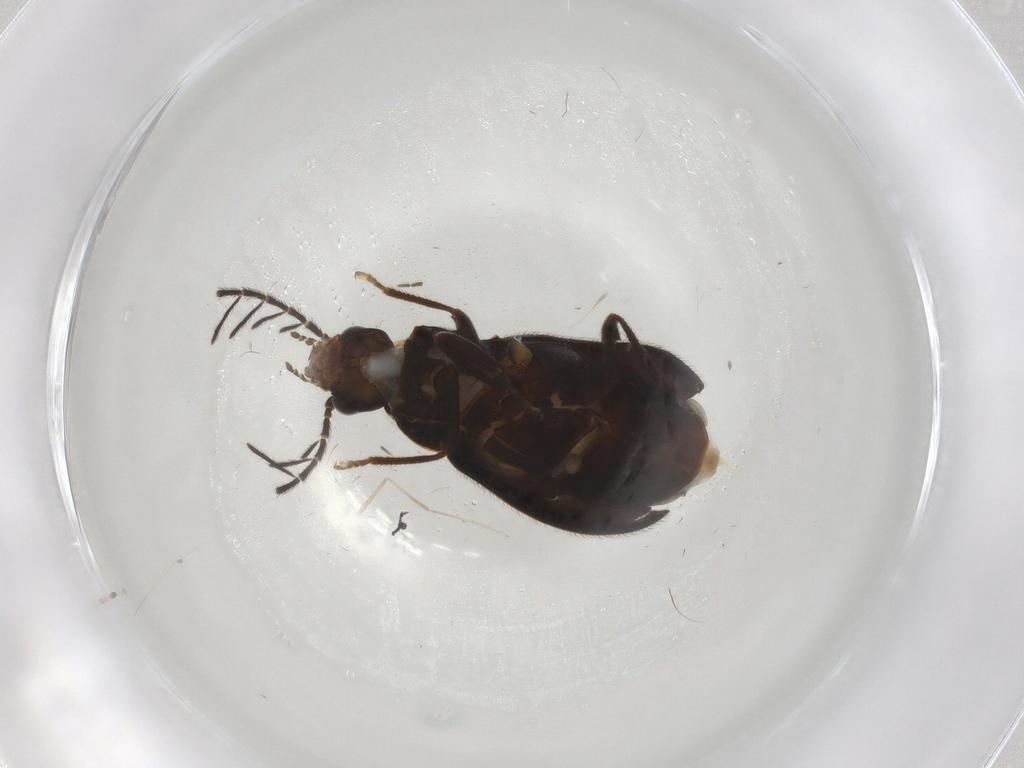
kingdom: Animalia
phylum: Arthropoda
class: Insecta
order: Coleoptera
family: Ptilodactylidae
